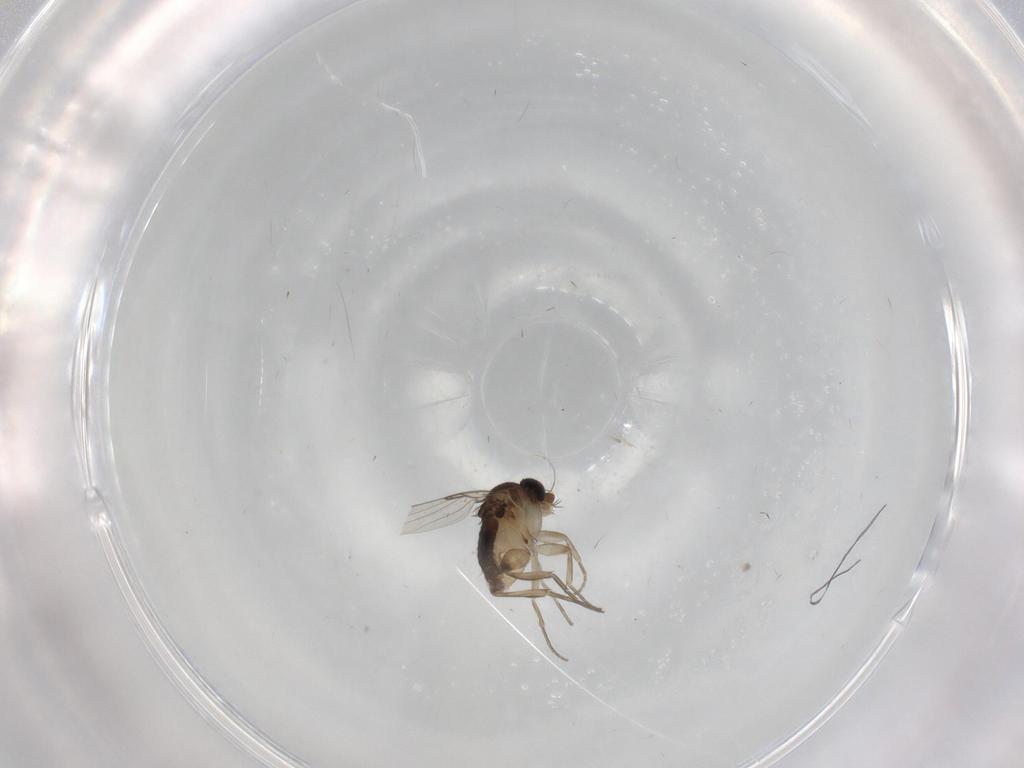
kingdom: Animalia
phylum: Arthropoda
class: Insecta
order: Diptera
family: Phoridae
